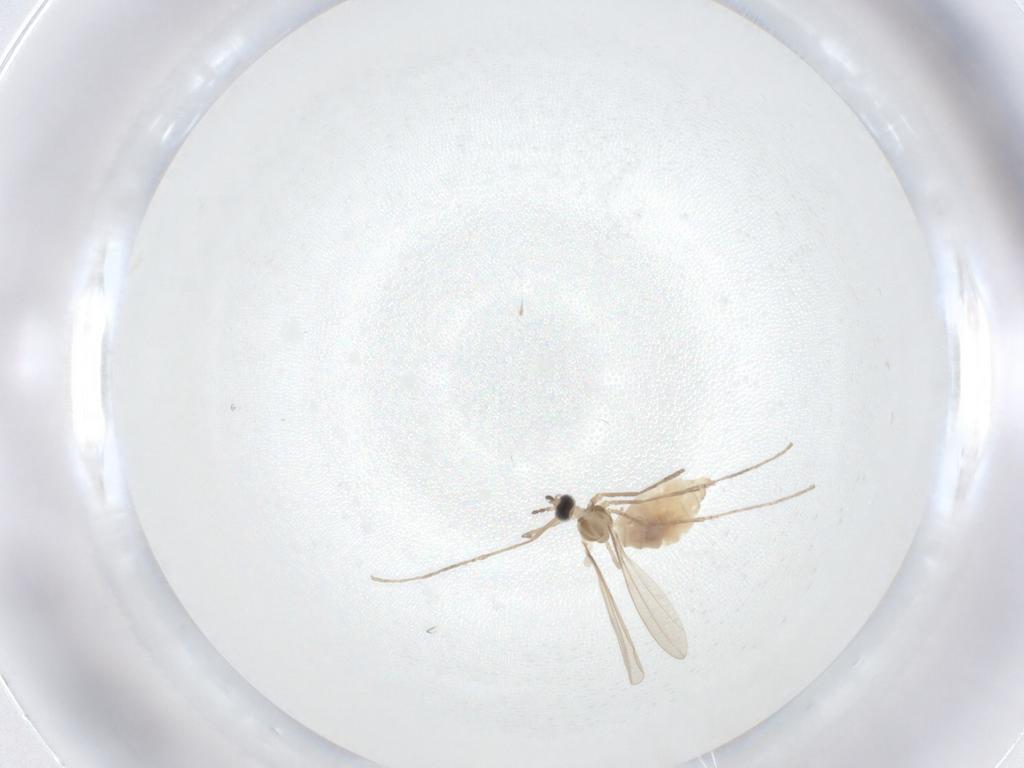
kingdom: Animalia
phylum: Arthropoda
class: Insecta
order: Diptera
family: Cecidomyiidae
